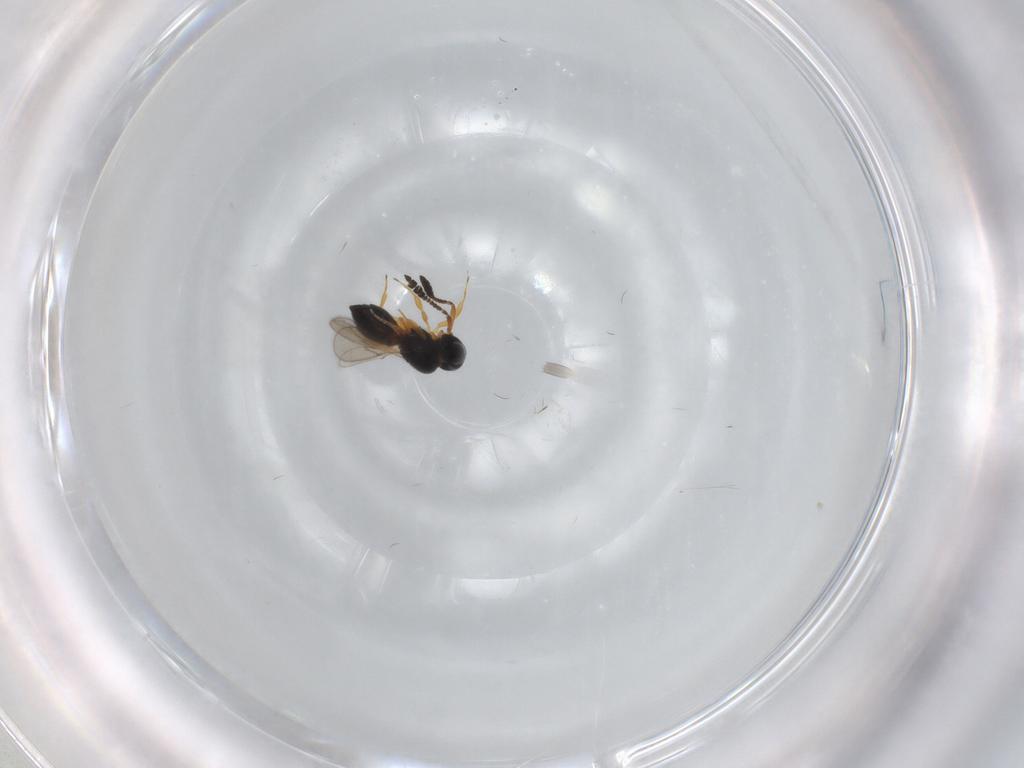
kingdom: Animalia
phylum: Arthropoda
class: Insecta
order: Hymenoptera
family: Scelionidae
